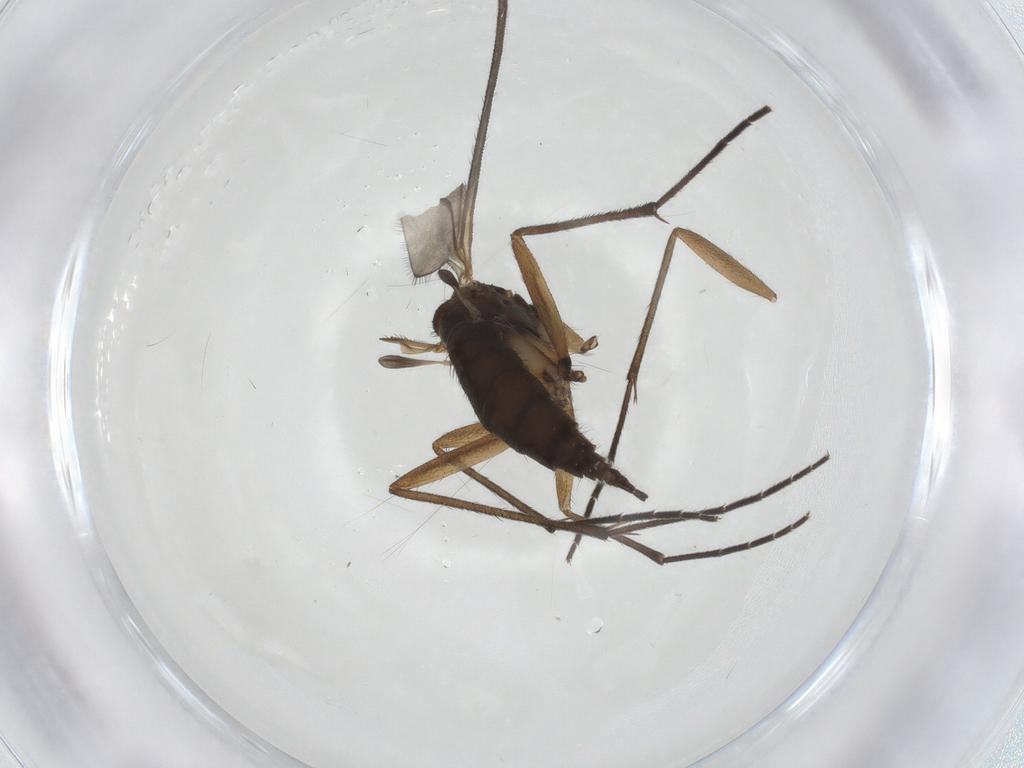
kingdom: Animalia
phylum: Arthropoda
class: Insecta
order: Diptera
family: Sciaridae
